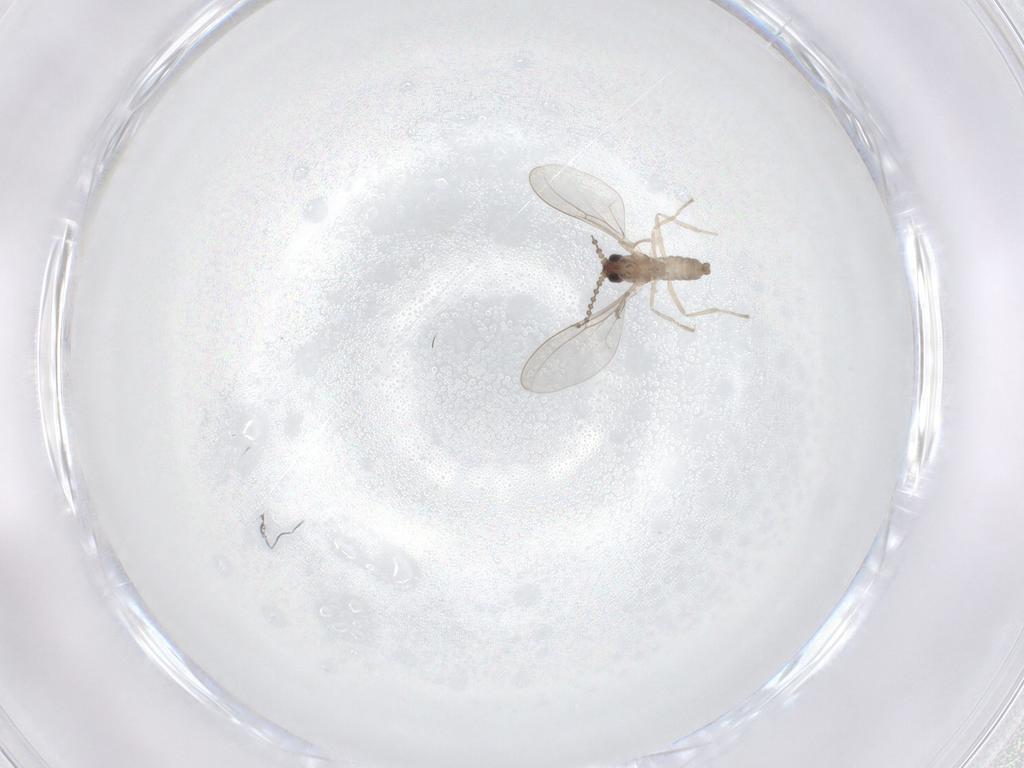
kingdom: Animalia
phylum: Arthropoda
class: Insecta
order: Diptera
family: Cecidomyiidae
